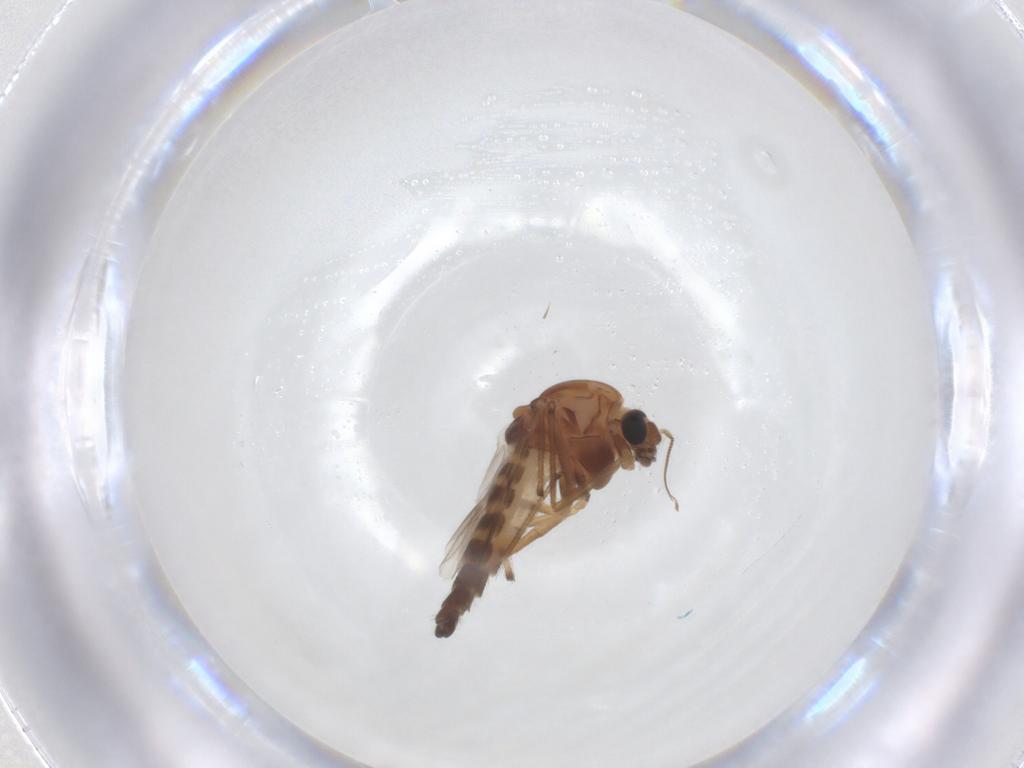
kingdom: Animalia
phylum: Arthropoda
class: Insecta
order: Diptera
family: Chironomidae
